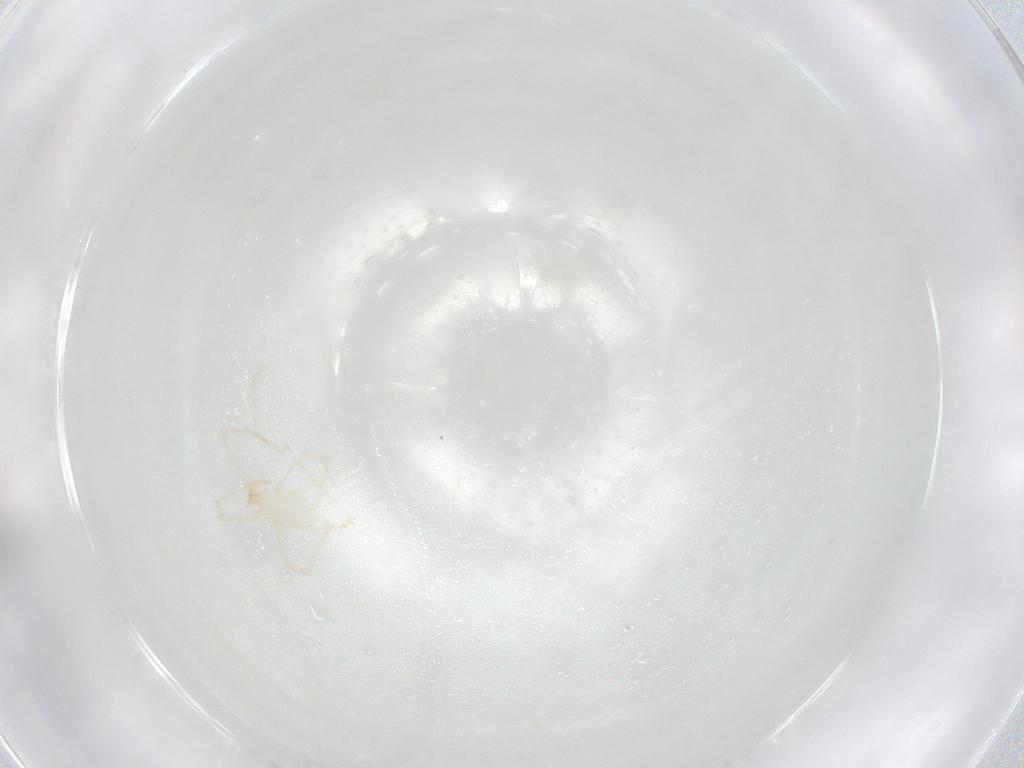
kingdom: Animalia
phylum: Arthropoda
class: Arachnida
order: Trombidiformes
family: Erythraeidae
